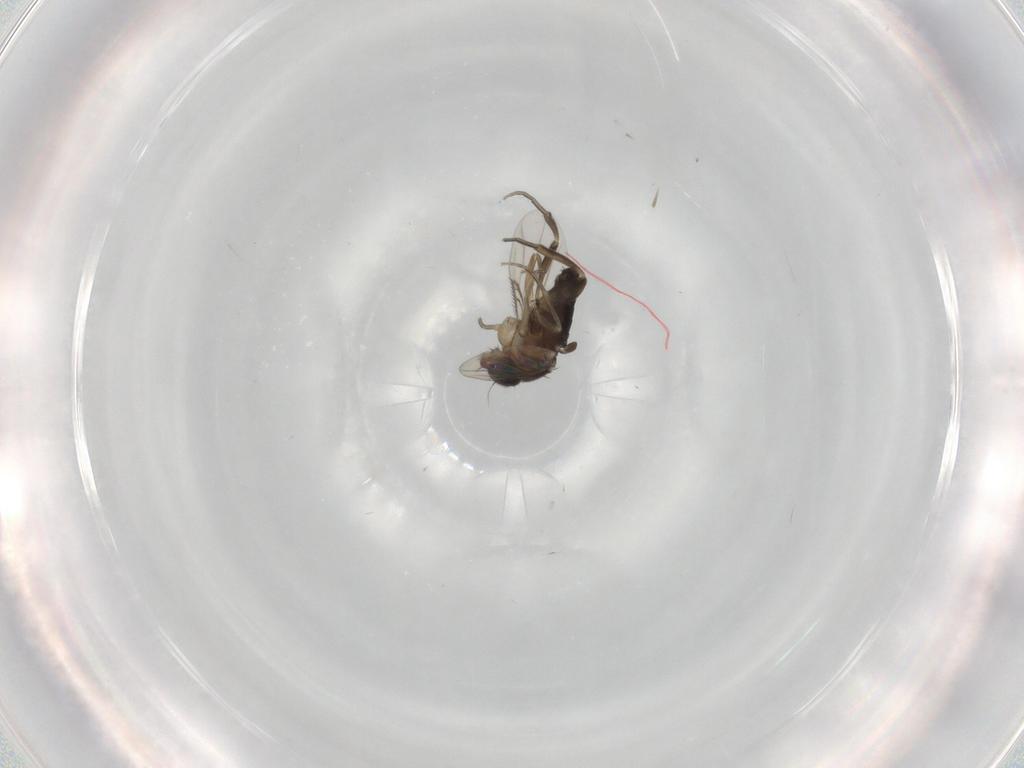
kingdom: Animalia
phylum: Arthropoda
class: Insecta
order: Diptera
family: Phoridae
